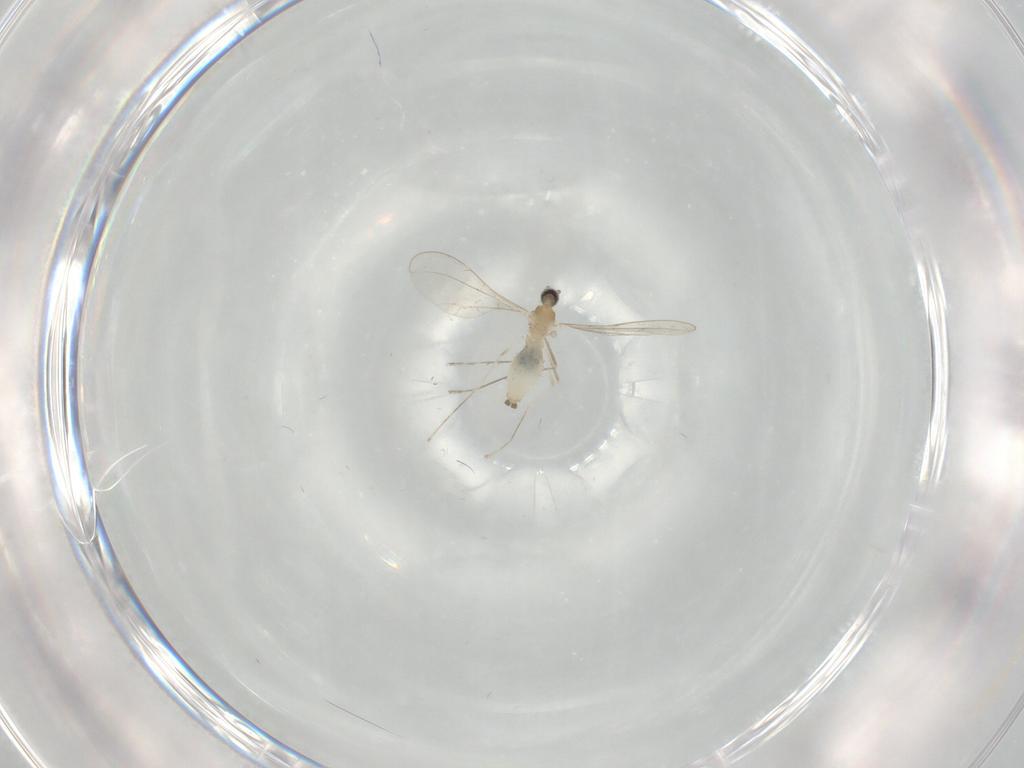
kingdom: Animalia
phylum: Arthropoda
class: Insecta
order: Diptera
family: Cecidomyiidae
